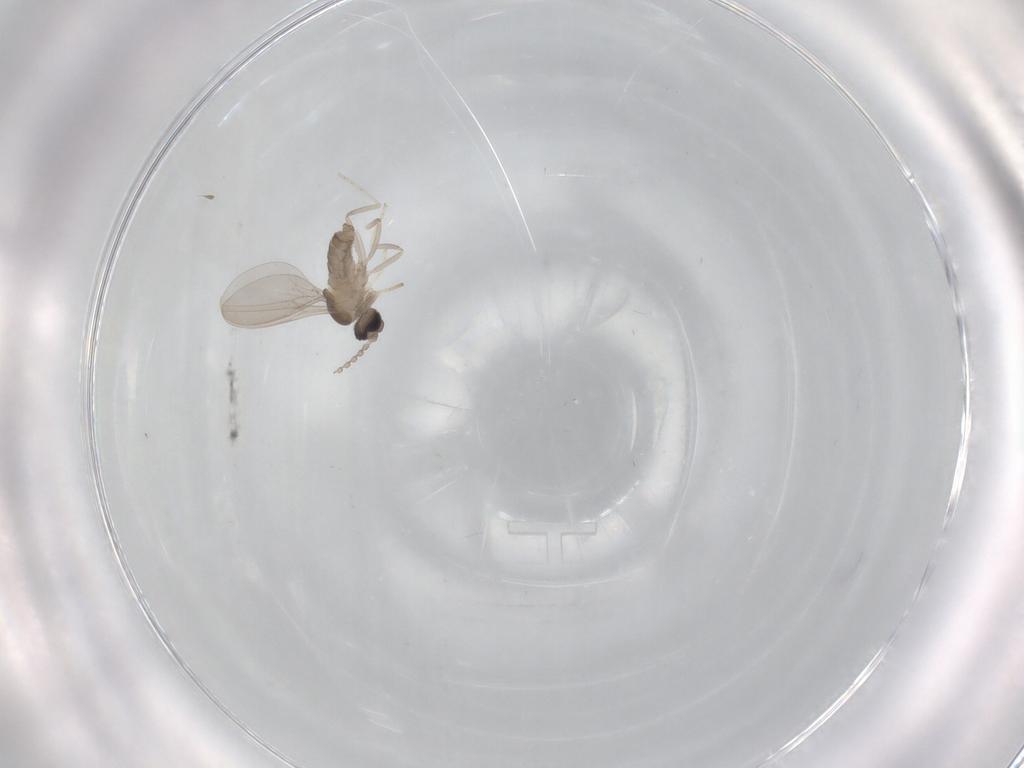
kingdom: Animalia
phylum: Arthropoda
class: Insecta
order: Diptera
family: Cecidomyiidae
